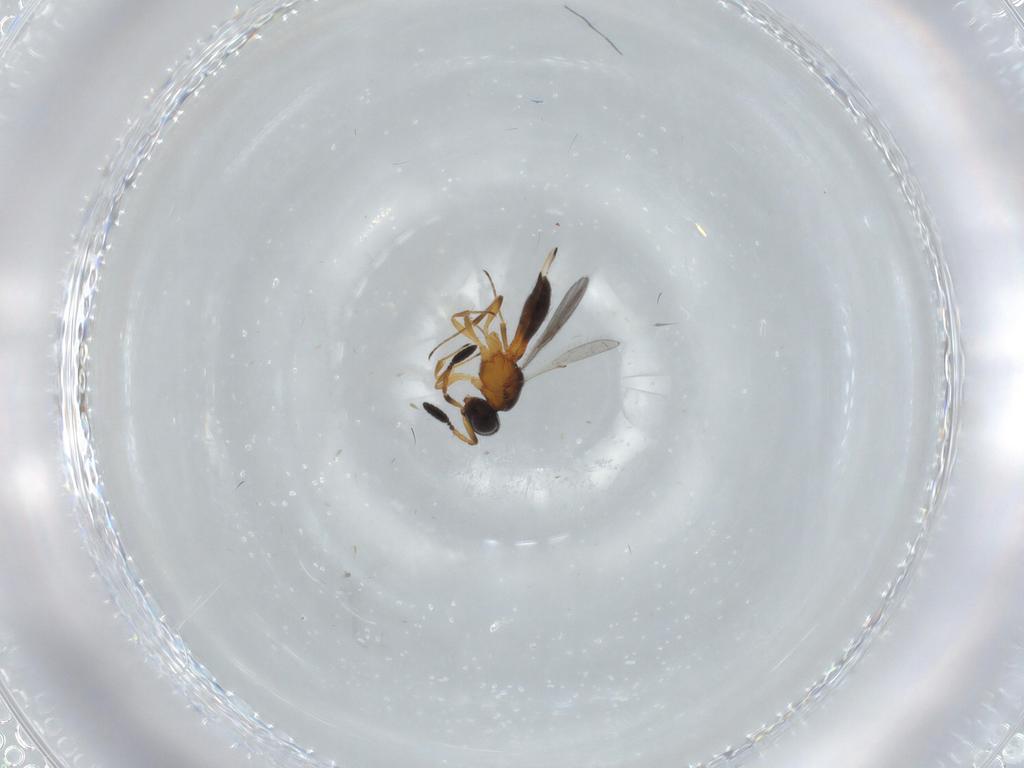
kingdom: Animalia
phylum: Arthropoda
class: Insecta
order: Hymenoptera
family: Scelionidae
